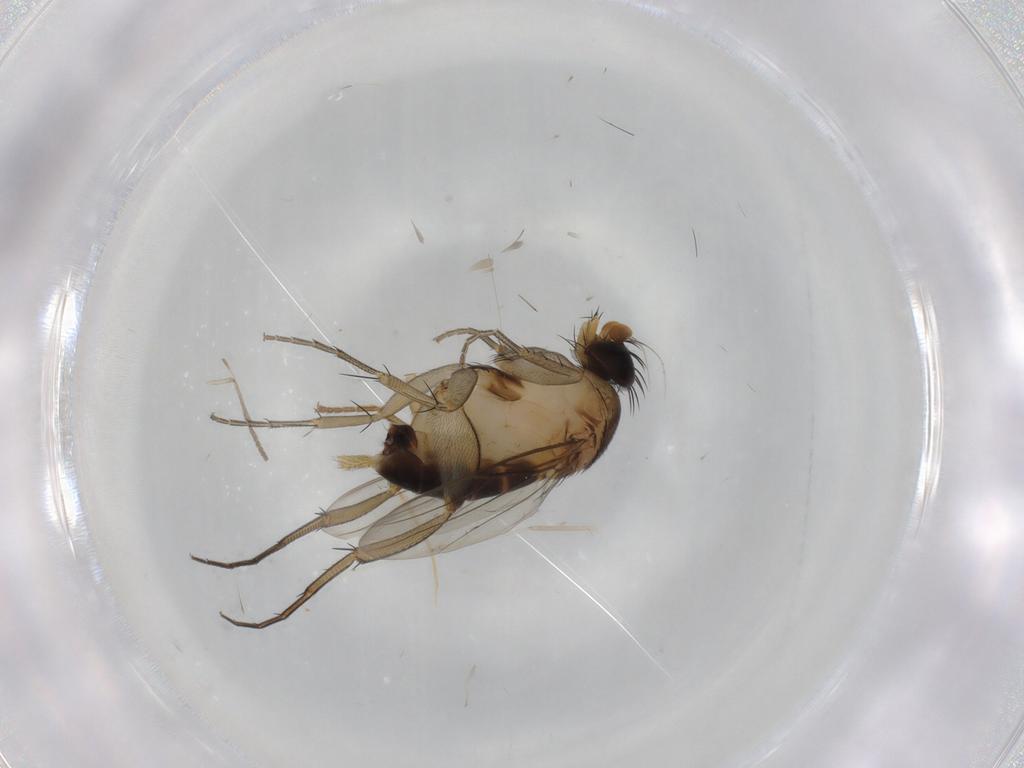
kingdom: Animalia
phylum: Arthropoda
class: Insecta
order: Diptera
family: Phoridae
